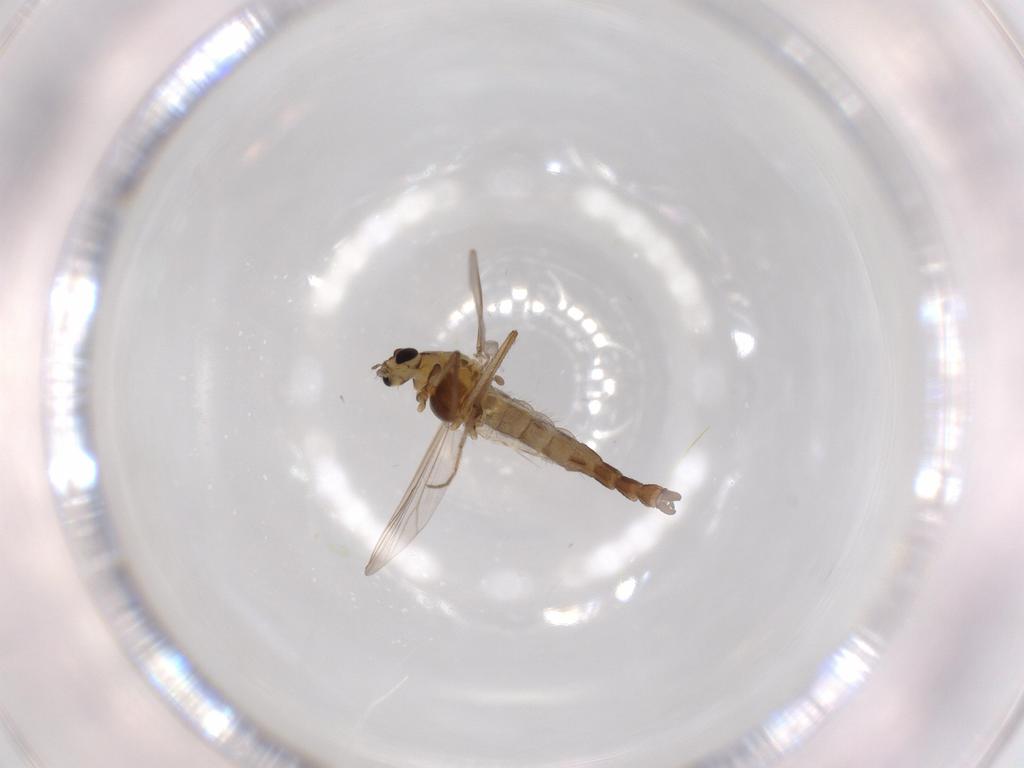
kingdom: Animalia
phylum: Arthropoda
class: Insecta
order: Diptera
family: Chironomidae
